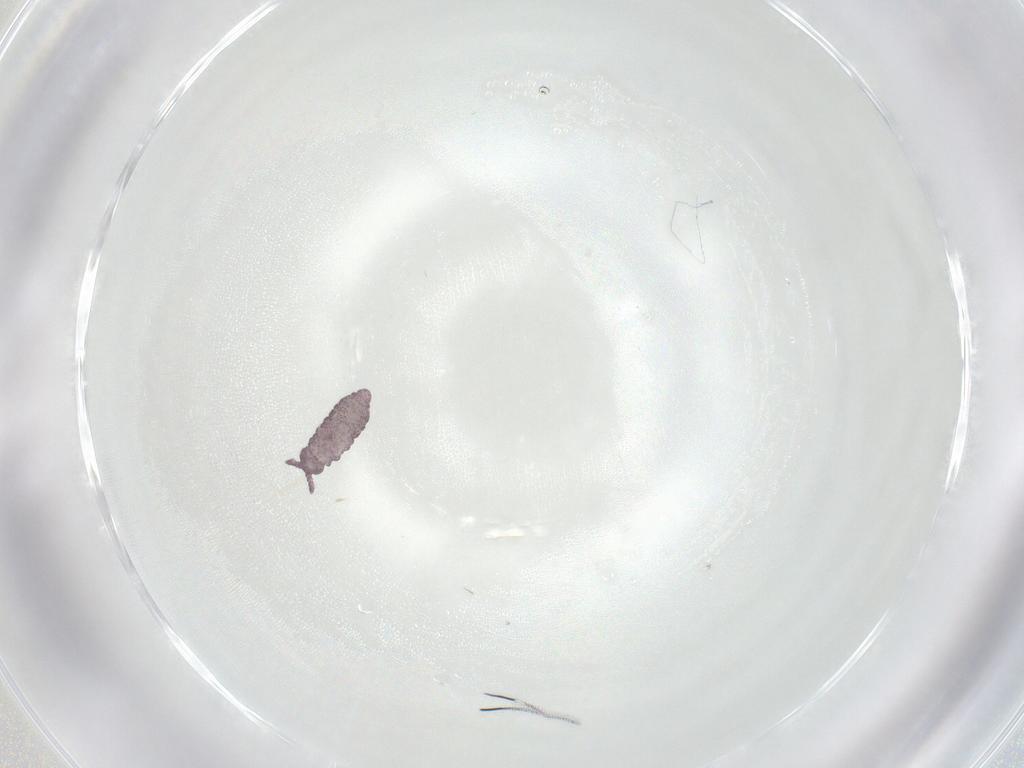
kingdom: Animalia
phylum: Arthropoda
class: Collembola
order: Poduromorpha
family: Hypogastruridae
